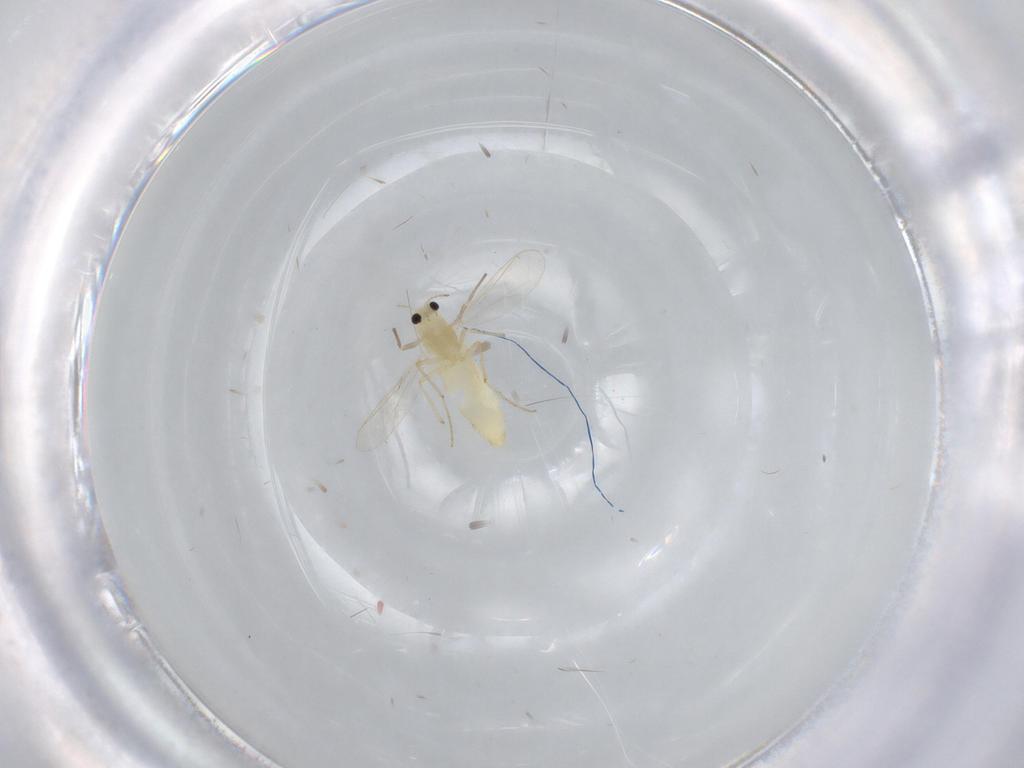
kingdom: Animalia
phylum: Arthropoda
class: Insecta
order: Diptera
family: Chironomidae
